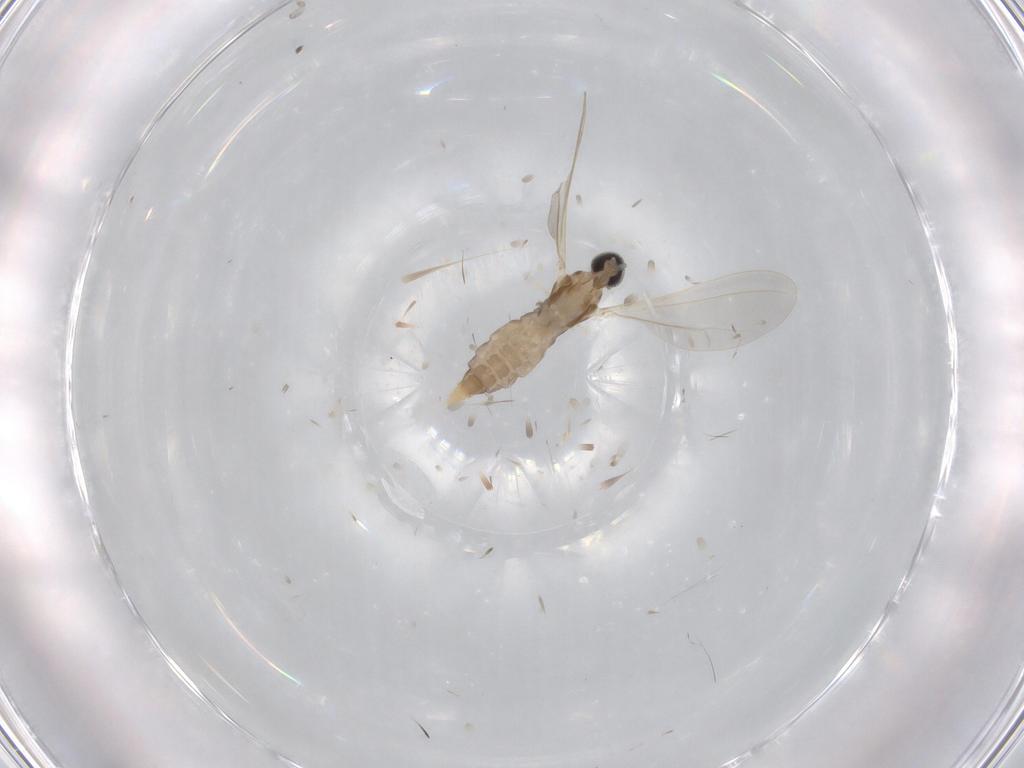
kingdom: Animalia
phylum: Arthropoda
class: Insecta
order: Diptera
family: Cecidomyiidae
